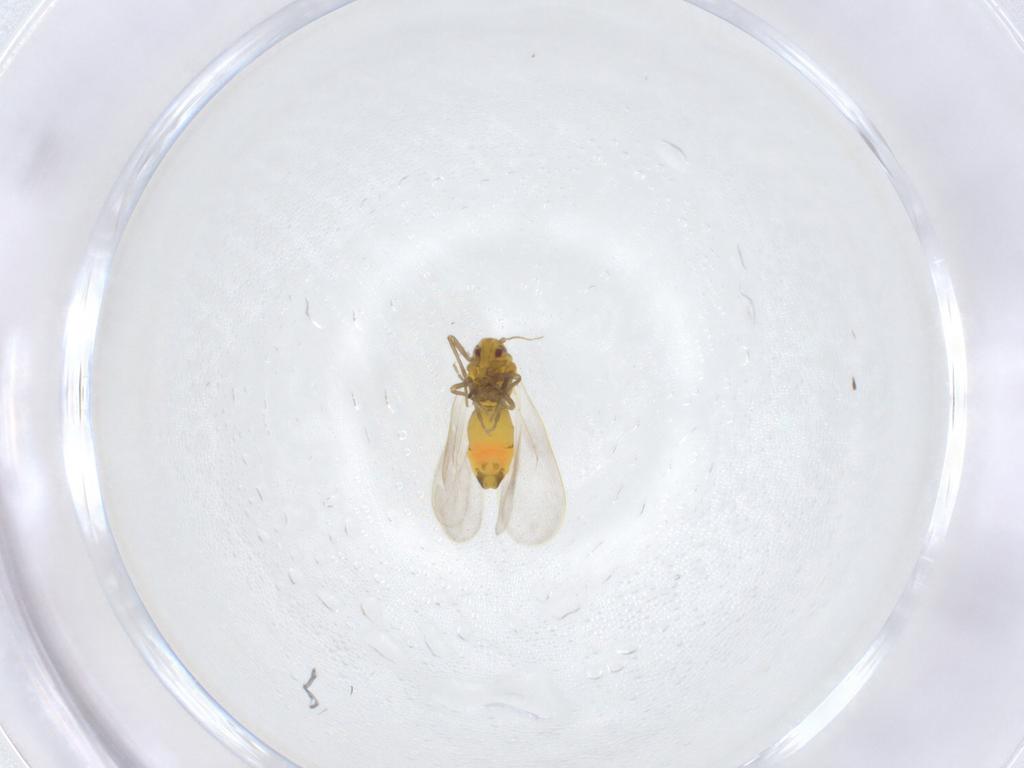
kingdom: Animalia
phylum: Arthropoda
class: Insecta
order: Hemiptera
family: Aleyrodidae
